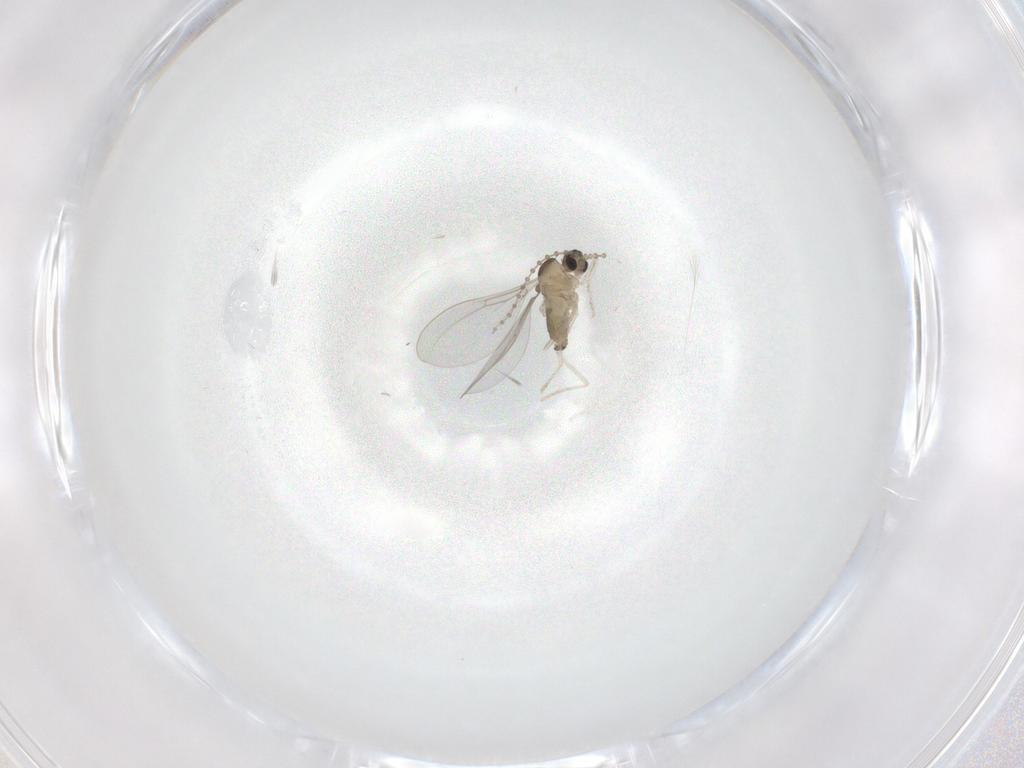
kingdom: Animalia
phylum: Arthropoda
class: Insecta
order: Diptera
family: Cecidomyiidae
